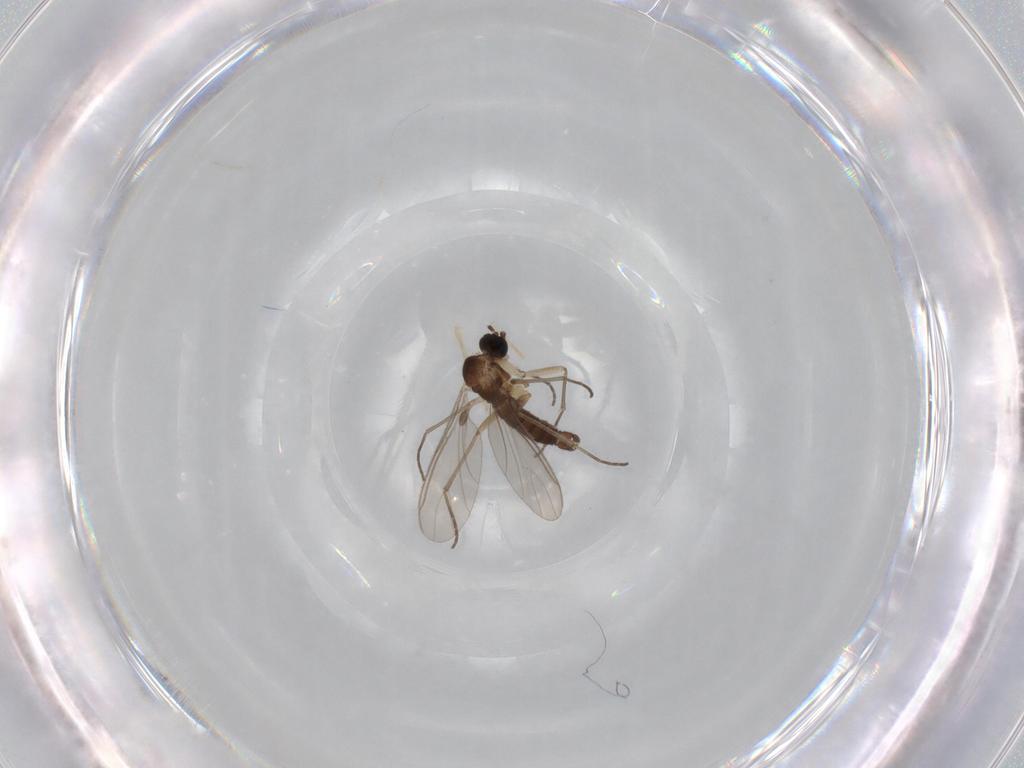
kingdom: Animalia
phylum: Arthropoda
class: Insecta
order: Diptera
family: Sciaridae
